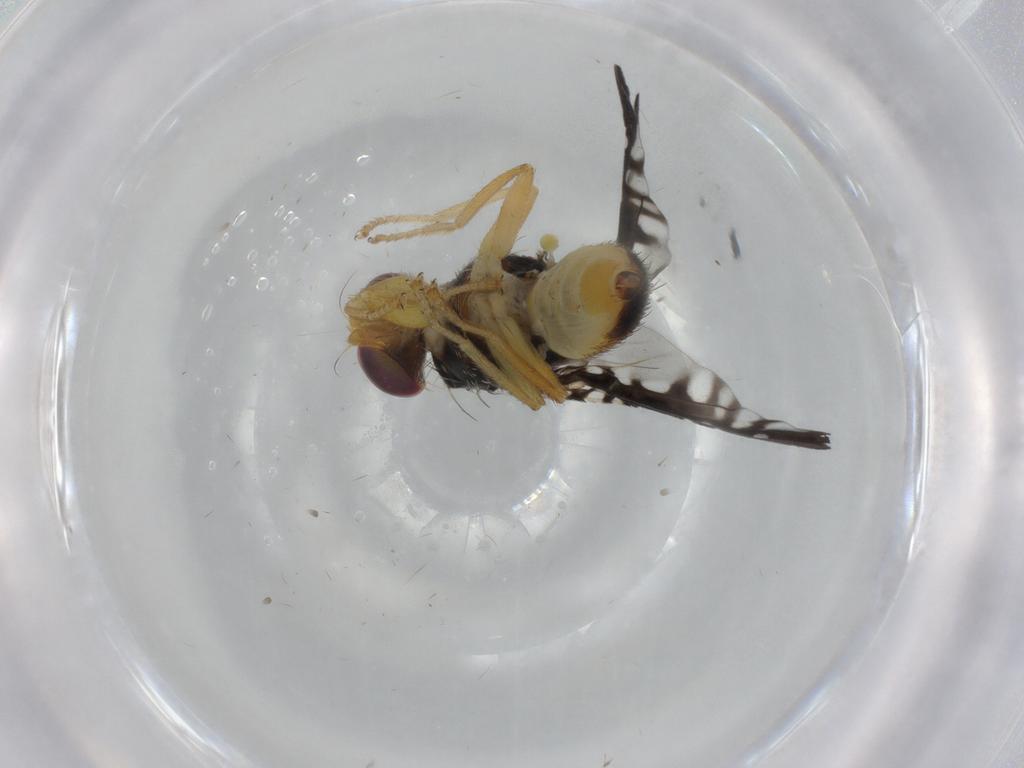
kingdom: Animalia
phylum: Arthropoda
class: Insecta
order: Diptera
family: Tephritidae
